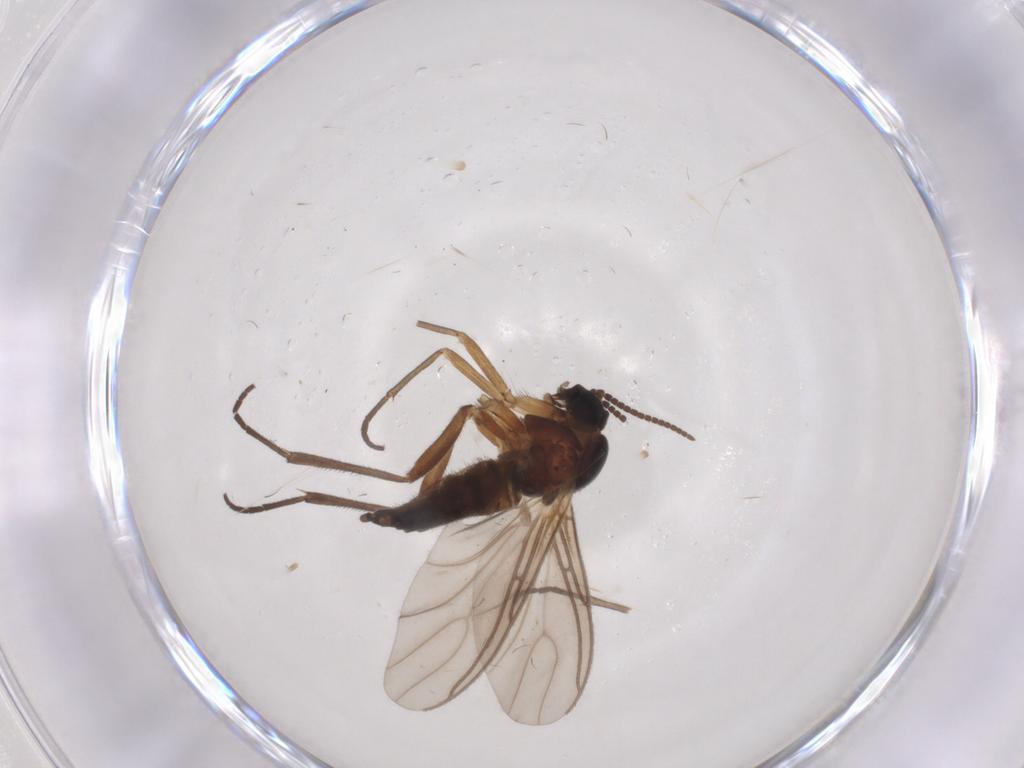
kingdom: Animalia
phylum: Arthropoda
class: Insecta
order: Diptera
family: Sciaridae
